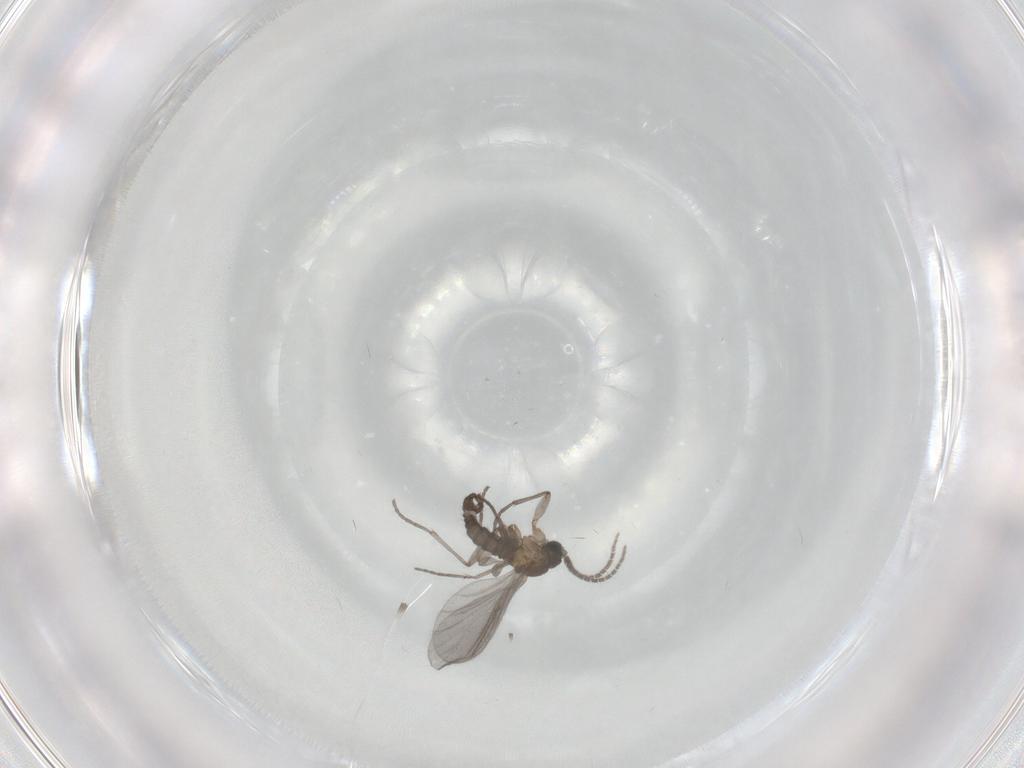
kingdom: Animalia
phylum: Arthropoda
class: Insecta
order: Diptera
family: Sciaridae
